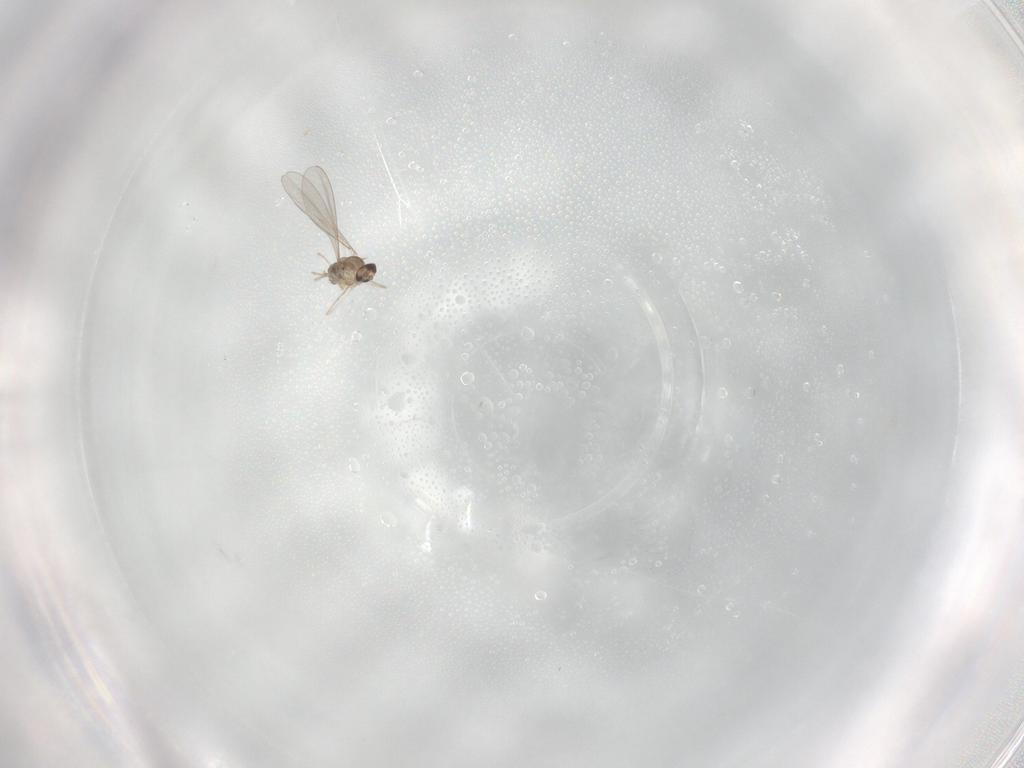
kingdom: Animalia
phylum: Arthropoda
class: Insecta
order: Diptera
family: Cecidomyiidae
